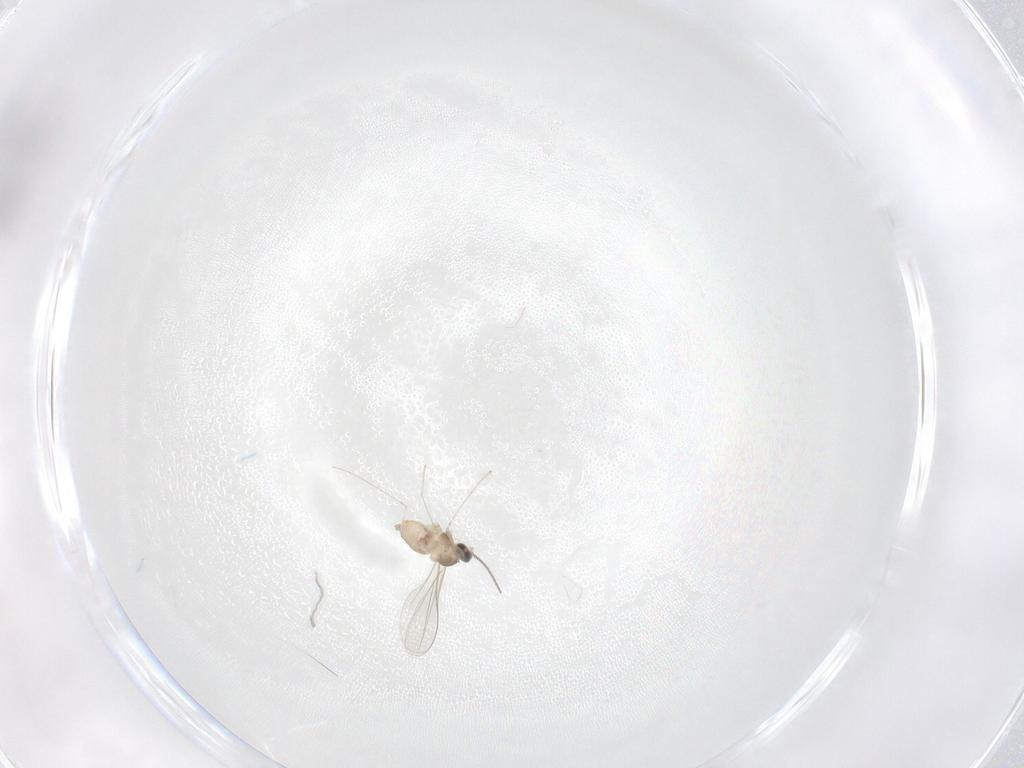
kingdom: Animalia
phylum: Arthropoda
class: Insecta
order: Diptera
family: Cecidomyiidae
